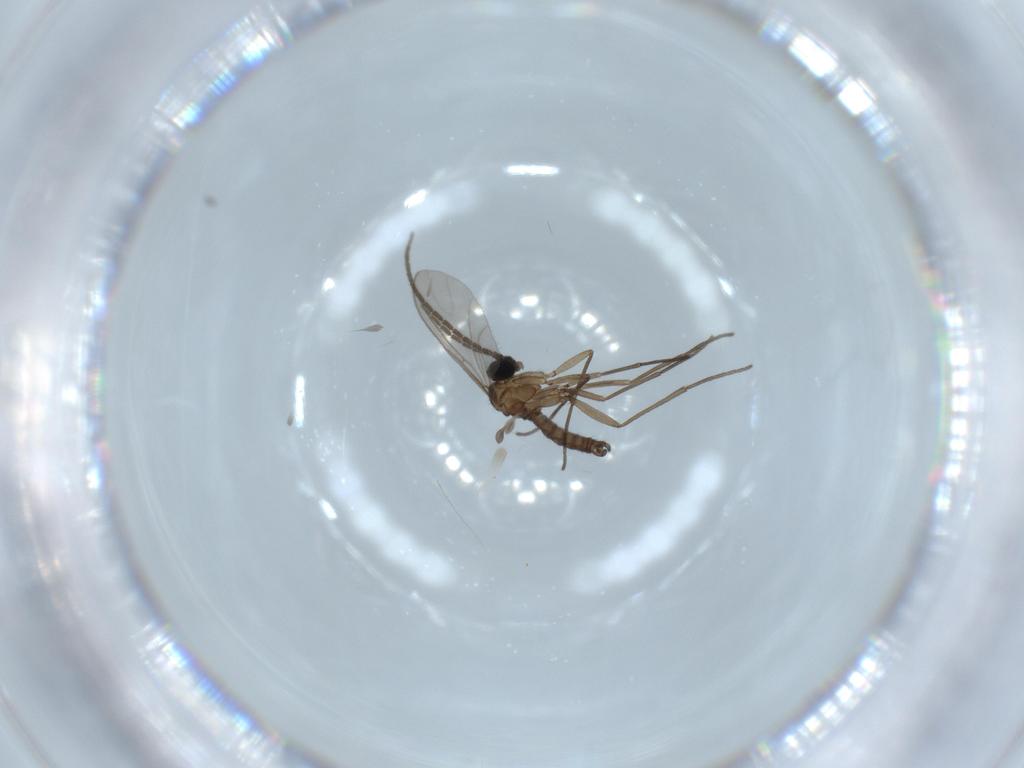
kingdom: Animalia
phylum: Arthropoda
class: Insecta
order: Diptera
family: Sciaridae
